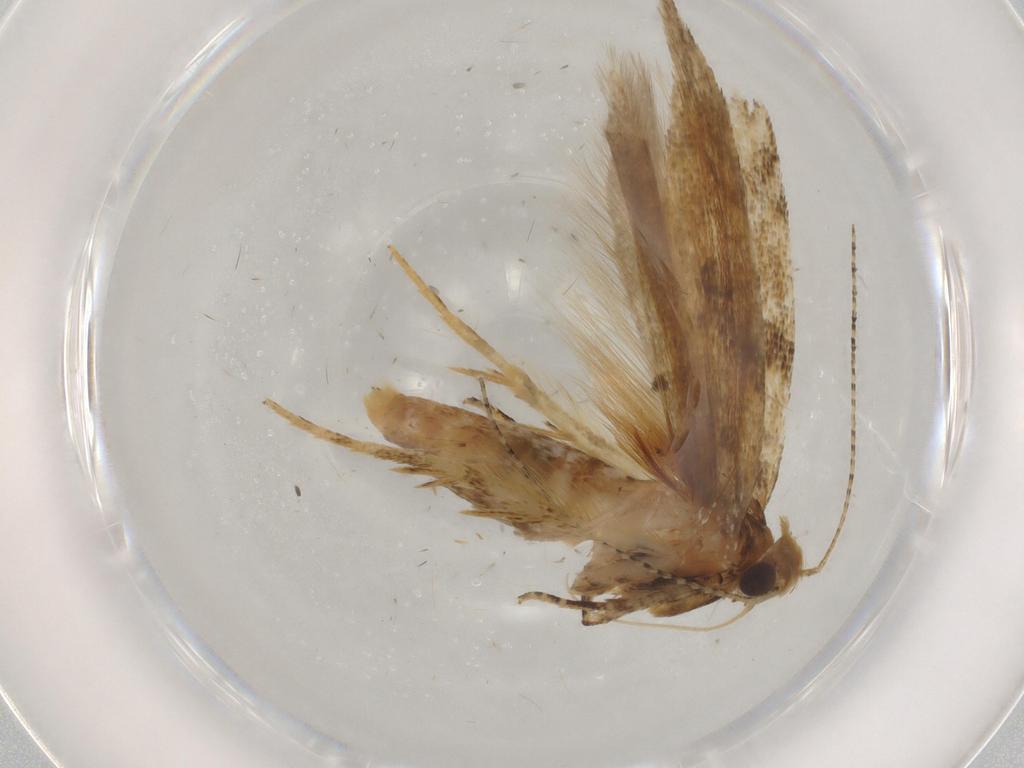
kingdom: Animalia
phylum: Arthropoda
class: Insecta
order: Lepidoptera
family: Gelechiidae
